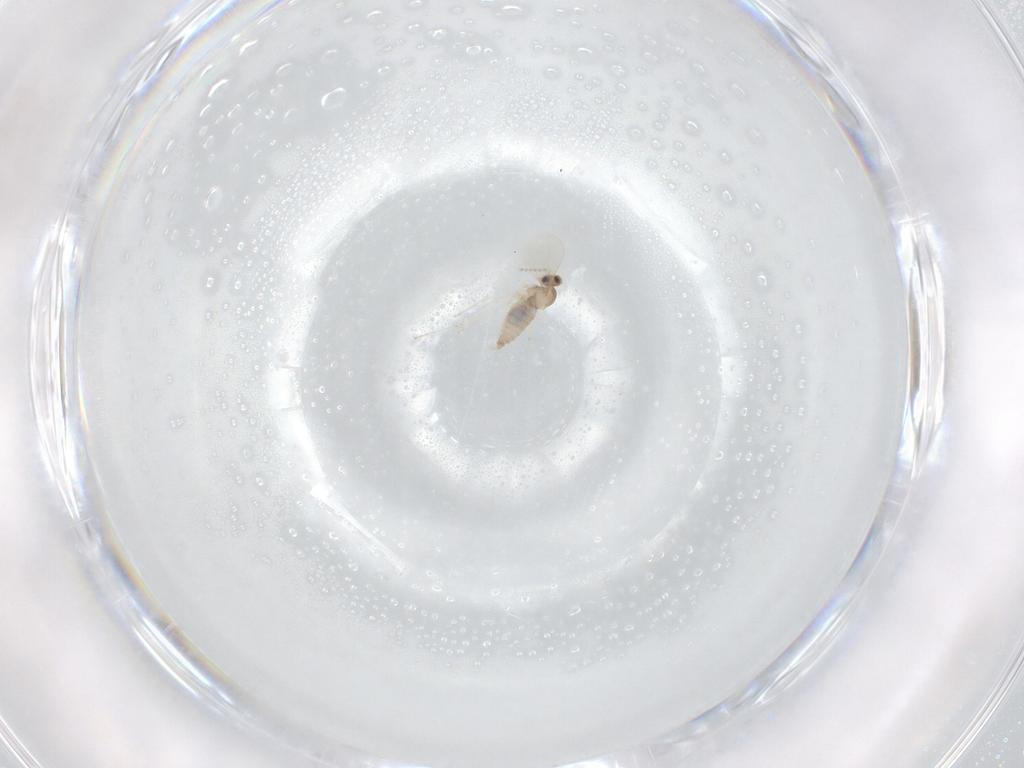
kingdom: Animalia
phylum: Arthropoda
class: Insecta
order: Diptera
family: Cecidomyiidae
